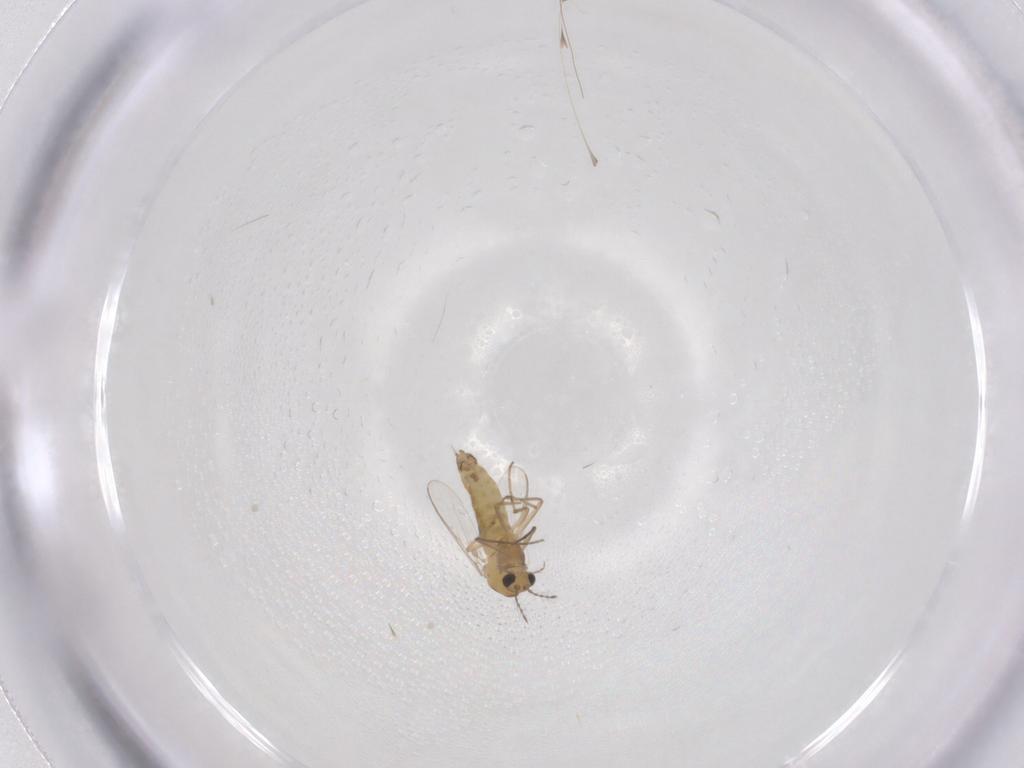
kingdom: Animalia
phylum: Arthropoda
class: Insecta
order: Diptera
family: Chironomidae
